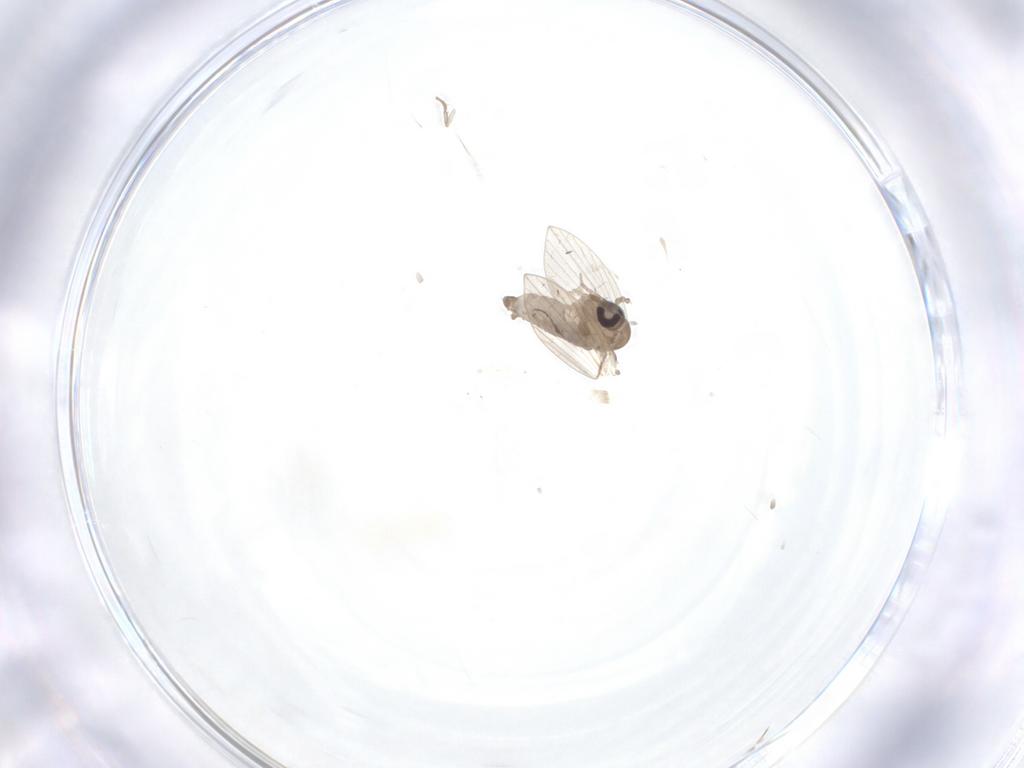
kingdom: Animalia
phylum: Arthropoda
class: Insecta
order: Diptera
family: Psychodidae
